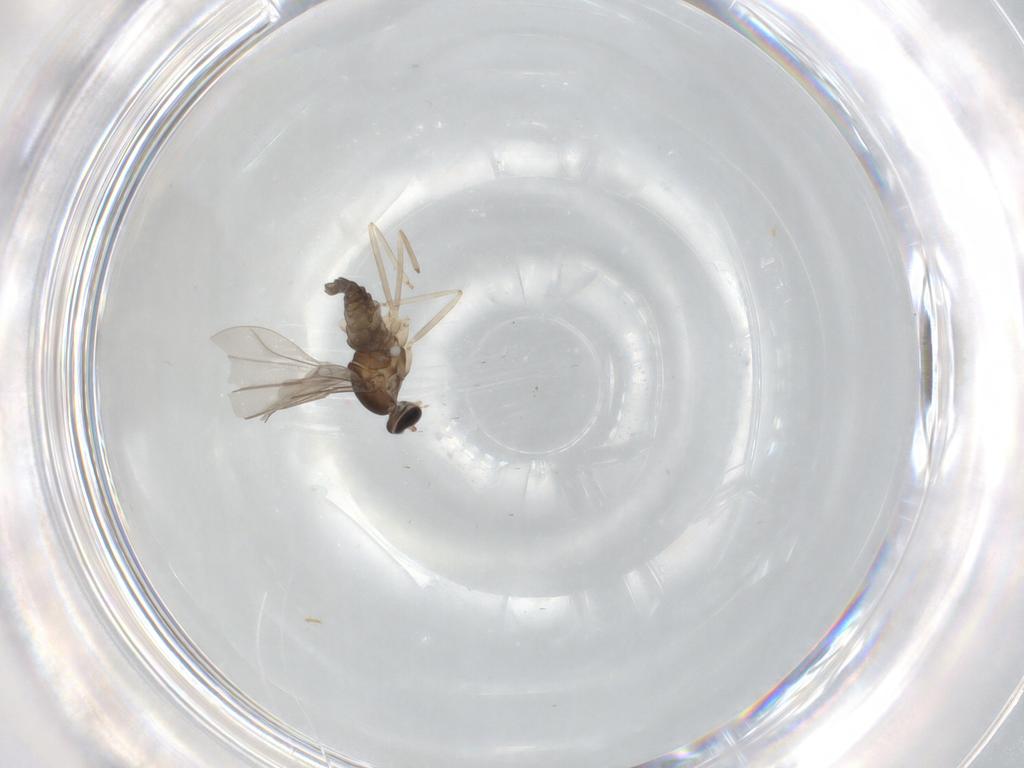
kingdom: Animalia
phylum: Arthropoda
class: Insecta
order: Diptera
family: Cecidomyiidae
